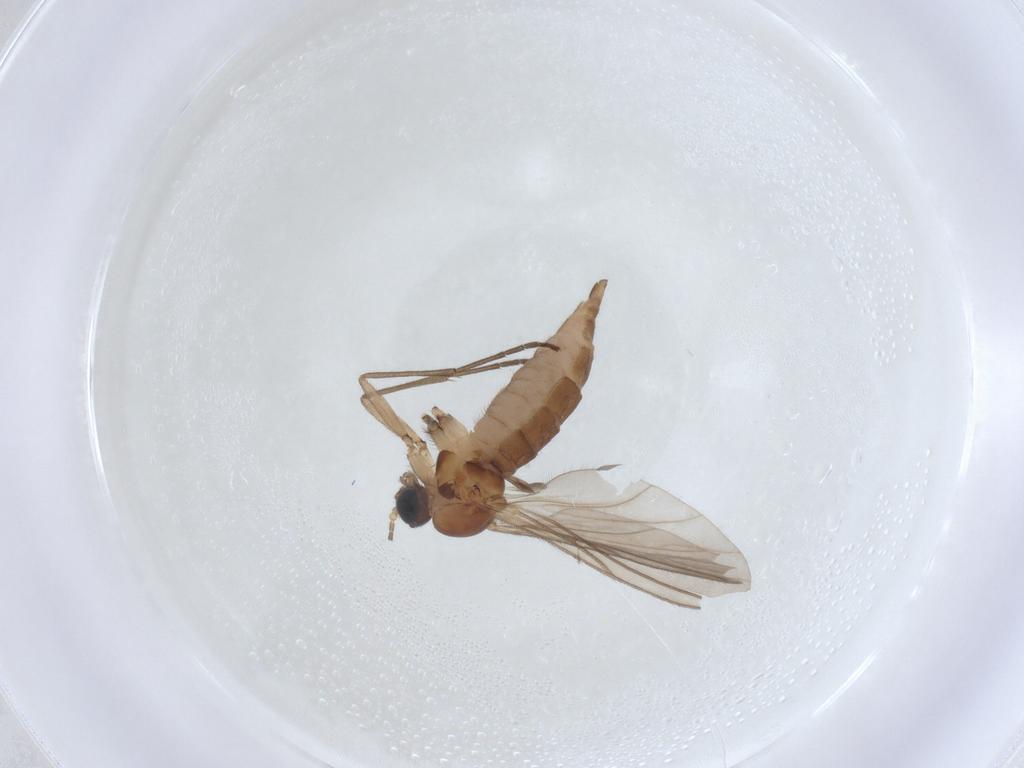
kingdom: Animalia
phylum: Arthropoda
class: Insecta
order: Diptera
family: Sciaridae
